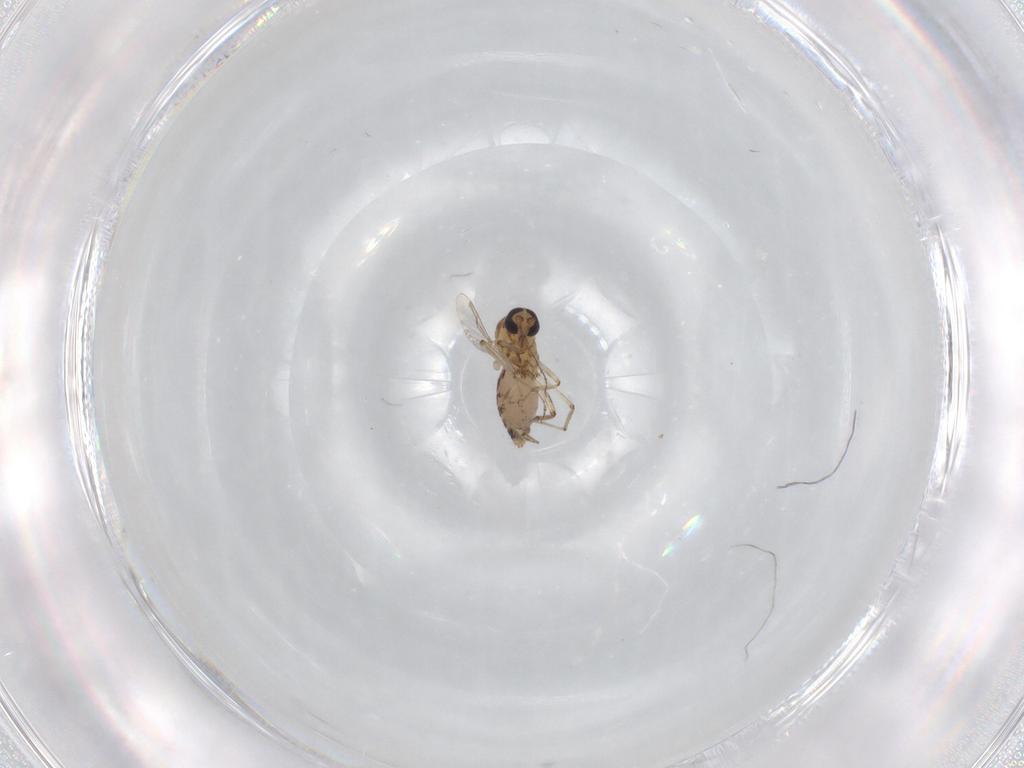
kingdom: Animalia
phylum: Arthropoda
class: Insecta
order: Diptera
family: Ceratopogonidae
